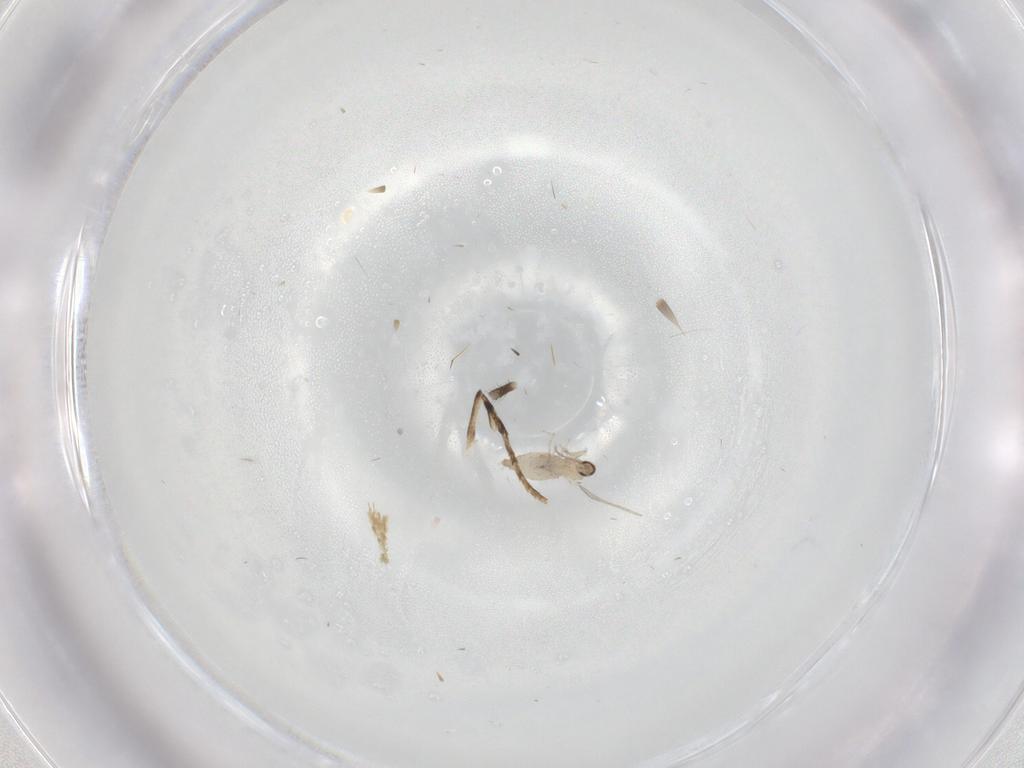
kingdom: Animalia
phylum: Arthropoda
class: Insecta
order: Diptera
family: Cecidomyiidae
